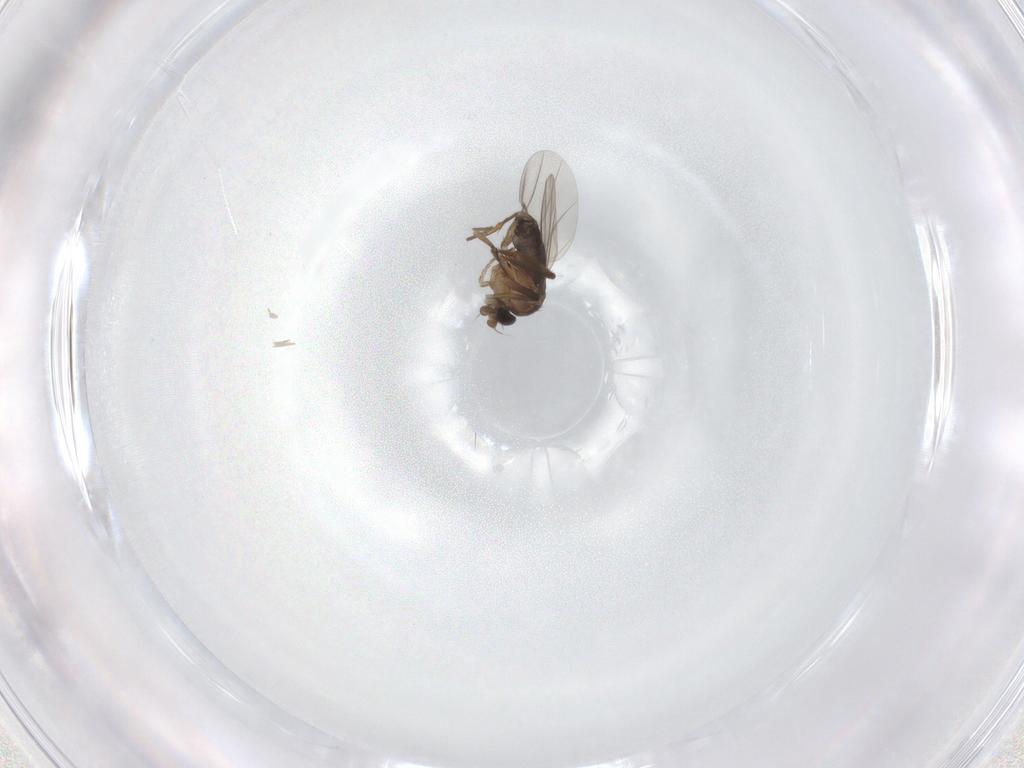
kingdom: Animalia
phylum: Arthropoda
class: Insecta
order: Diptera
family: Phoridae
